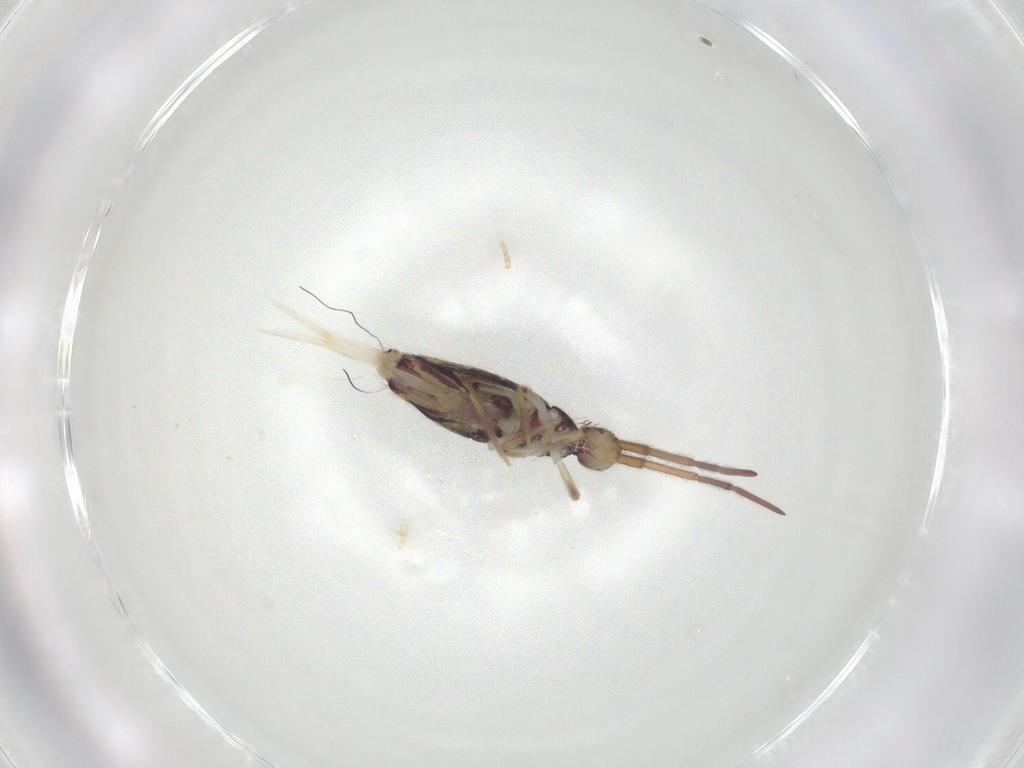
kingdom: Animalia
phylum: Arthropoda
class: Collembola
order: Entomobryomorpha
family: Entomobryidae
